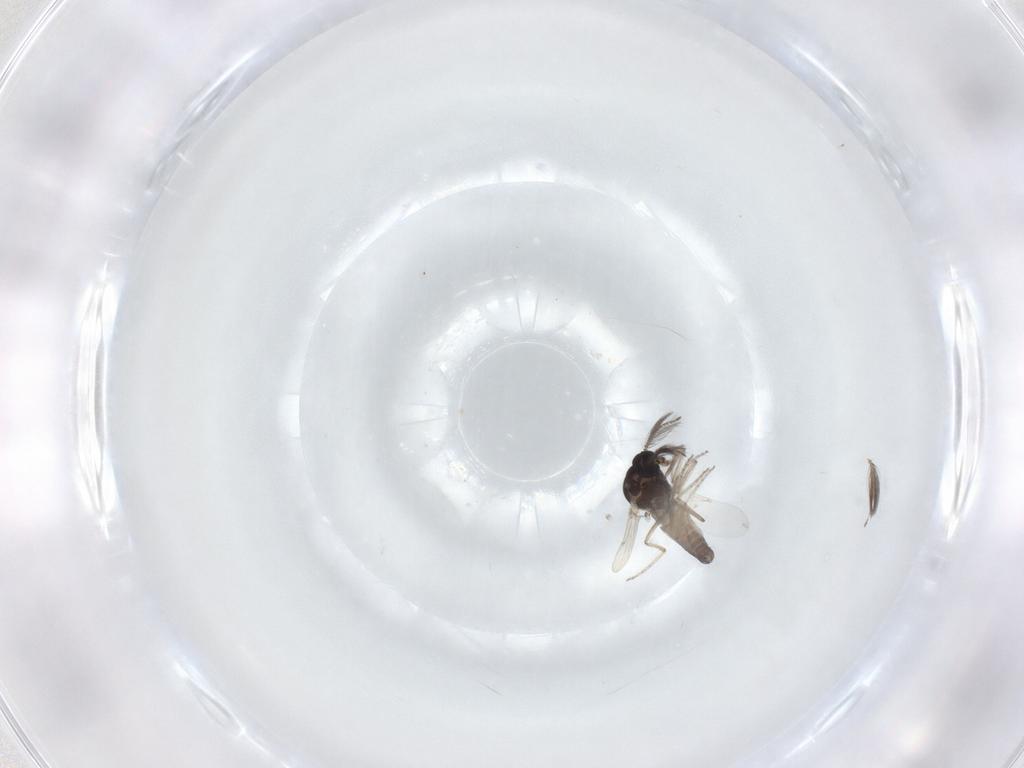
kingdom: Animalia
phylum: Arthropoda
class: Insecta
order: Diptera
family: Ceratopogonidae
